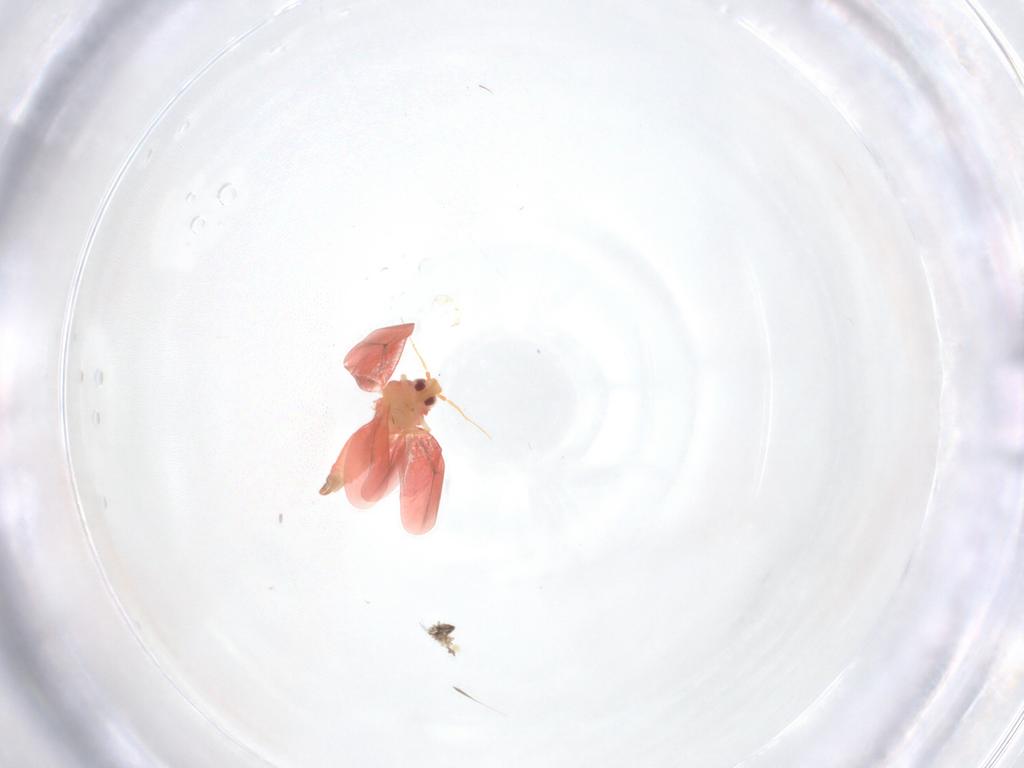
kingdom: Animalia
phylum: Arthropoda
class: Insecta
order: Hemiptera
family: Aleyrodidae
